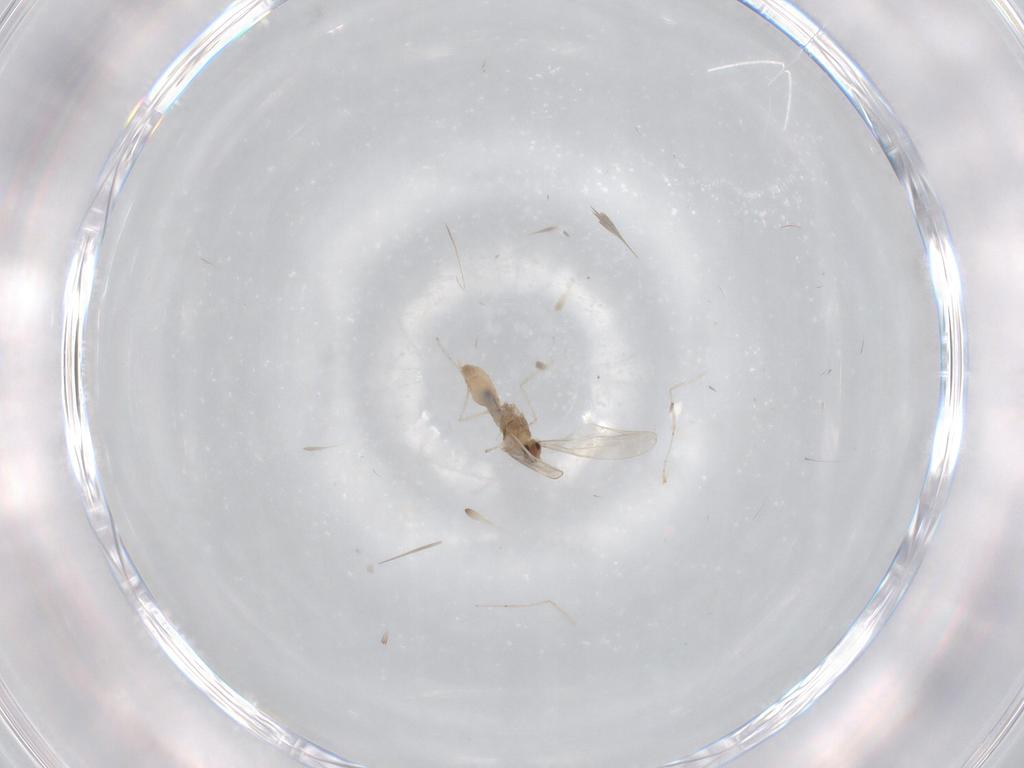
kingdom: Animalia
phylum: Arthropoda
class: Insecta
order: Diptera
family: Cecidomyiidae
